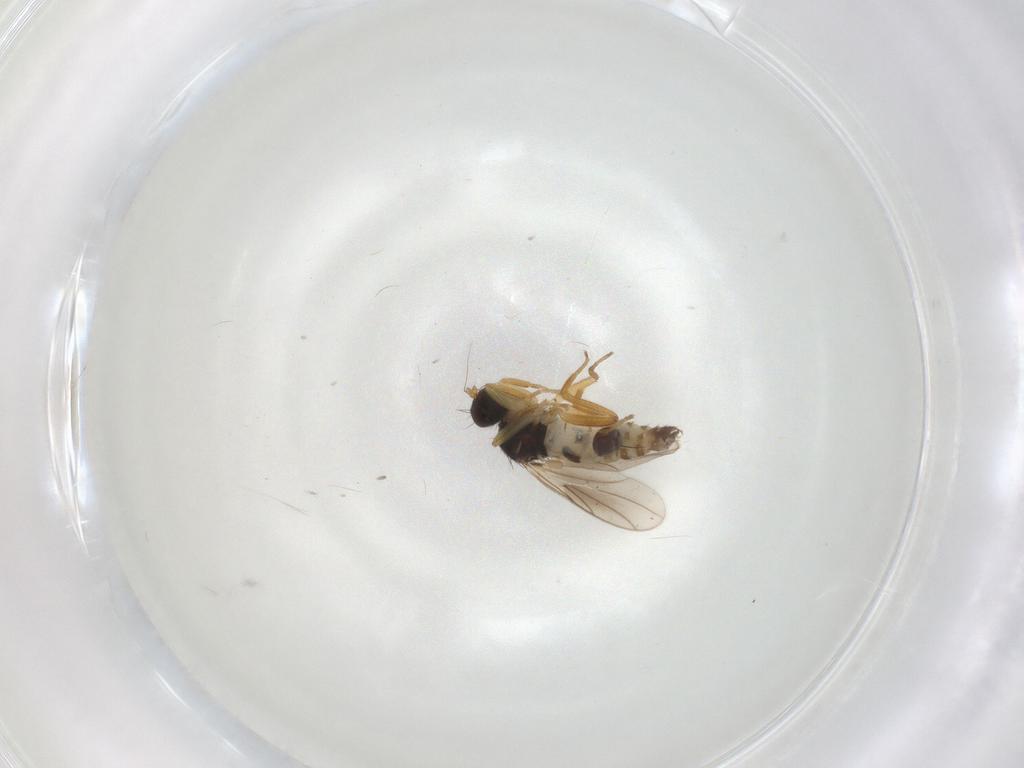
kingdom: Animalia
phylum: Arthropoda
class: Insecta
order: Diptera
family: Hybotidae
